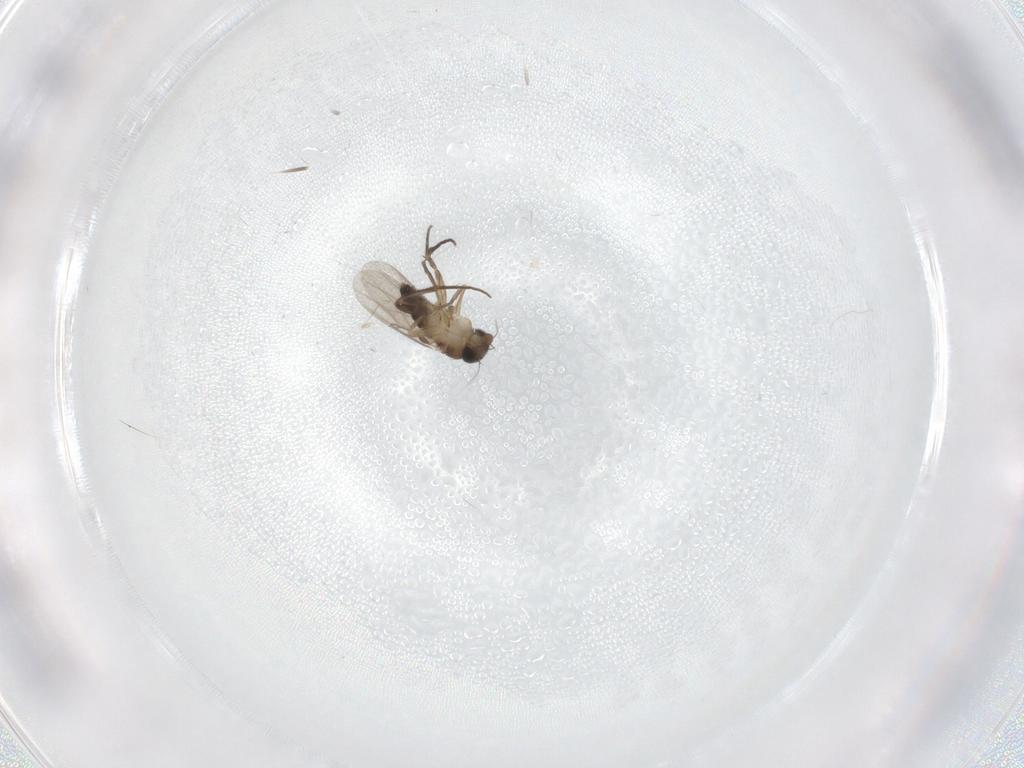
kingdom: Animalia
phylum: Arthropoda
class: Insecta
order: Diptera
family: Phoridae
